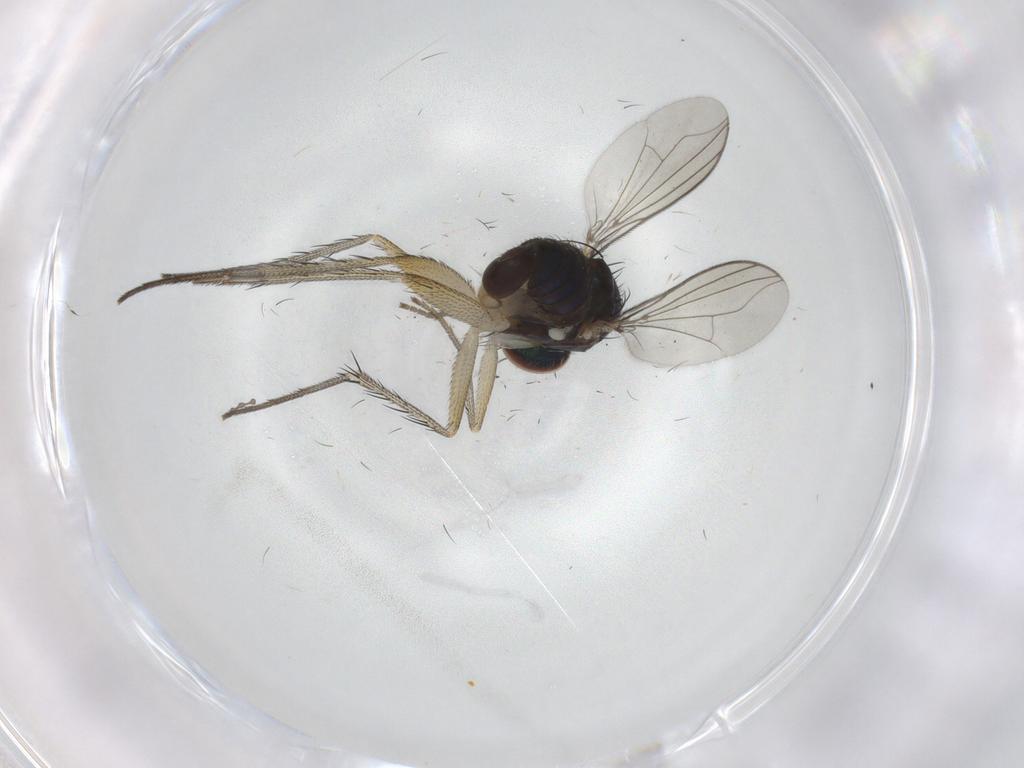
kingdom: Animalia
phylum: Arthropoda
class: Insecta
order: Diptera
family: Dolichopodidae
